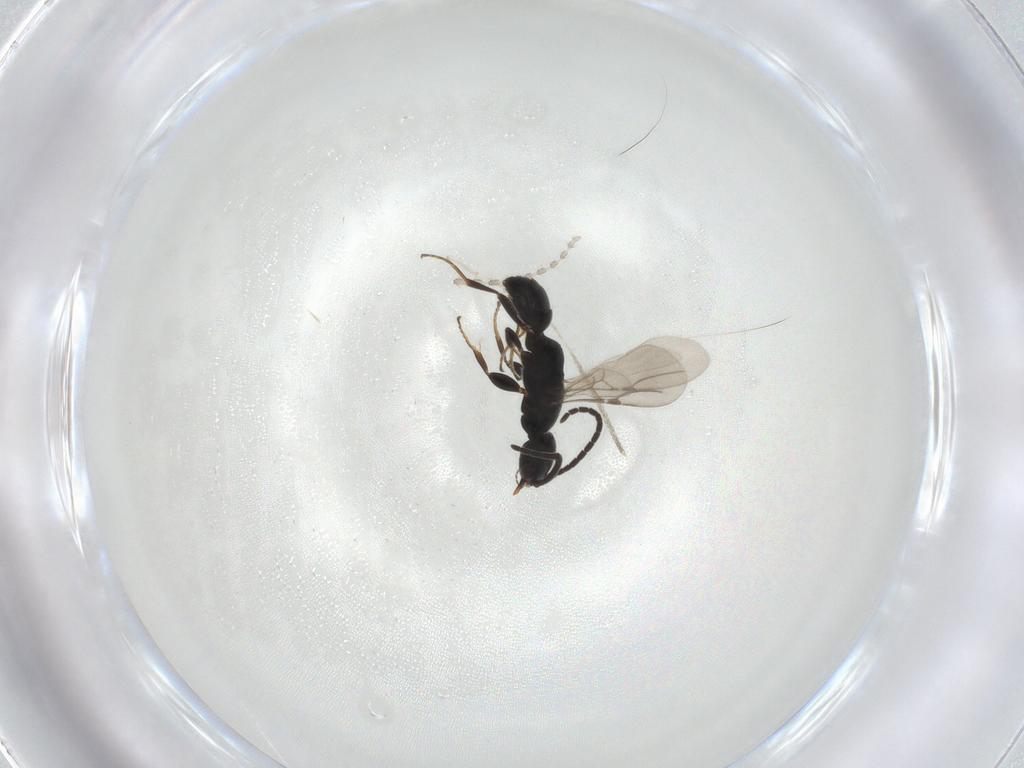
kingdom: Animalia
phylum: Arthropoda
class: Insecta
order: Hymenoptera
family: Bethylidae
